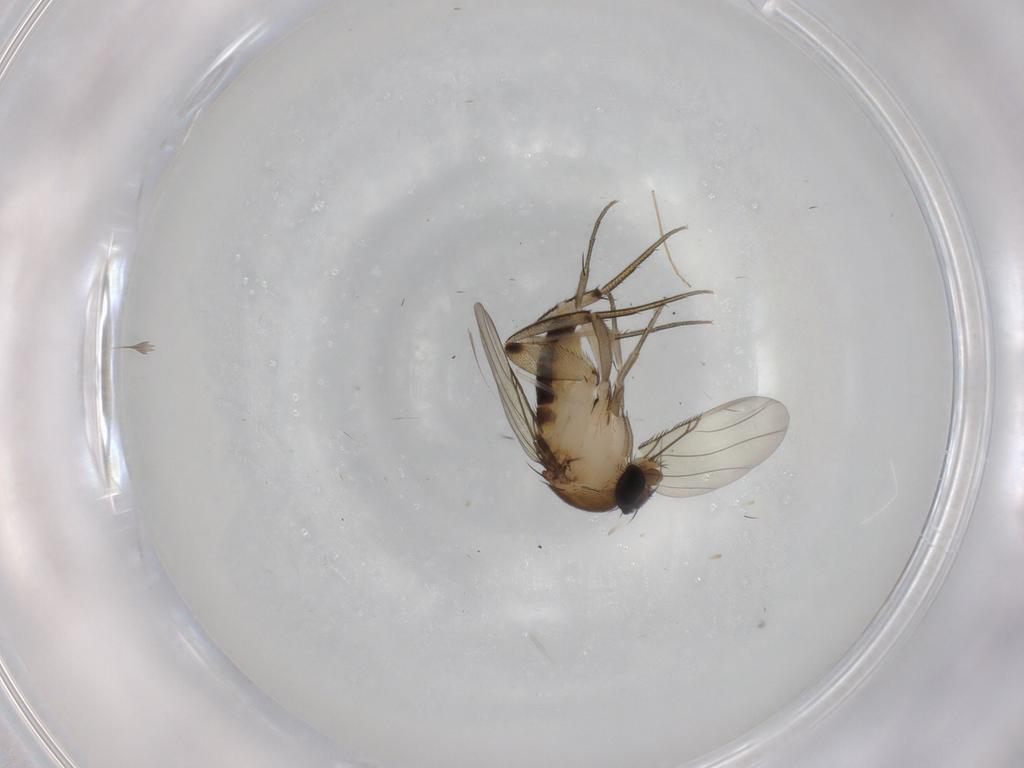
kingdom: Animalia
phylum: Arthropoda
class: Insecta
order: Diptera
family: Phoridae
